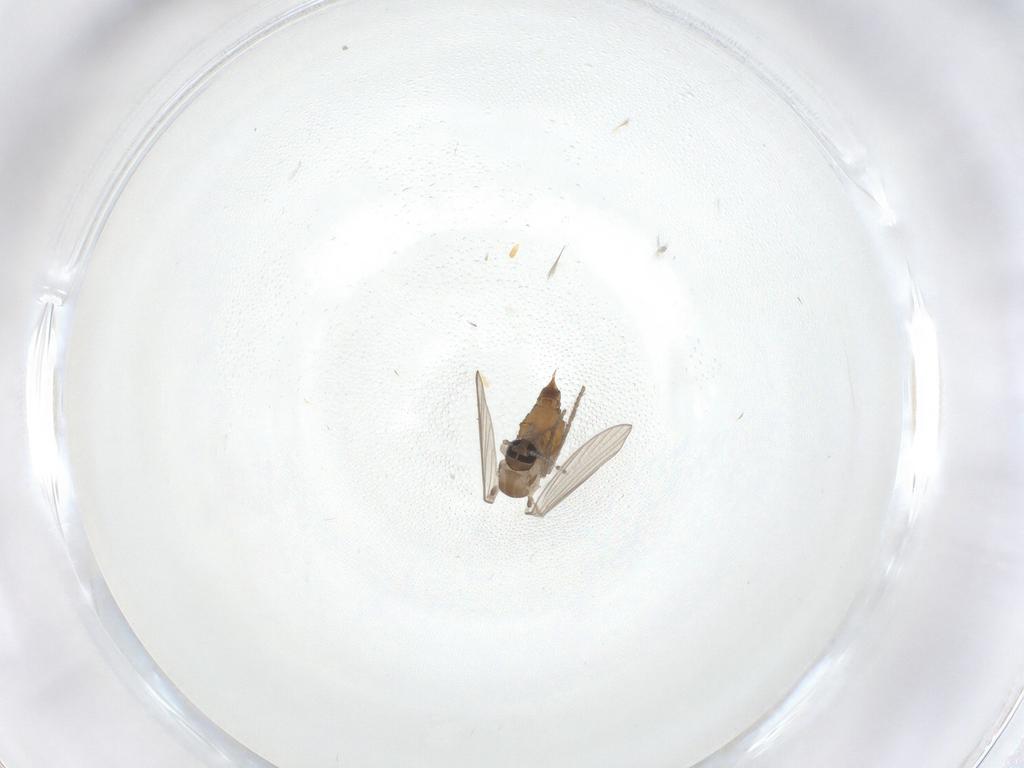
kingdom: Animalia
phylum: Arthropoda
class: Insecta
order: Diptera
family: Psychodidae
